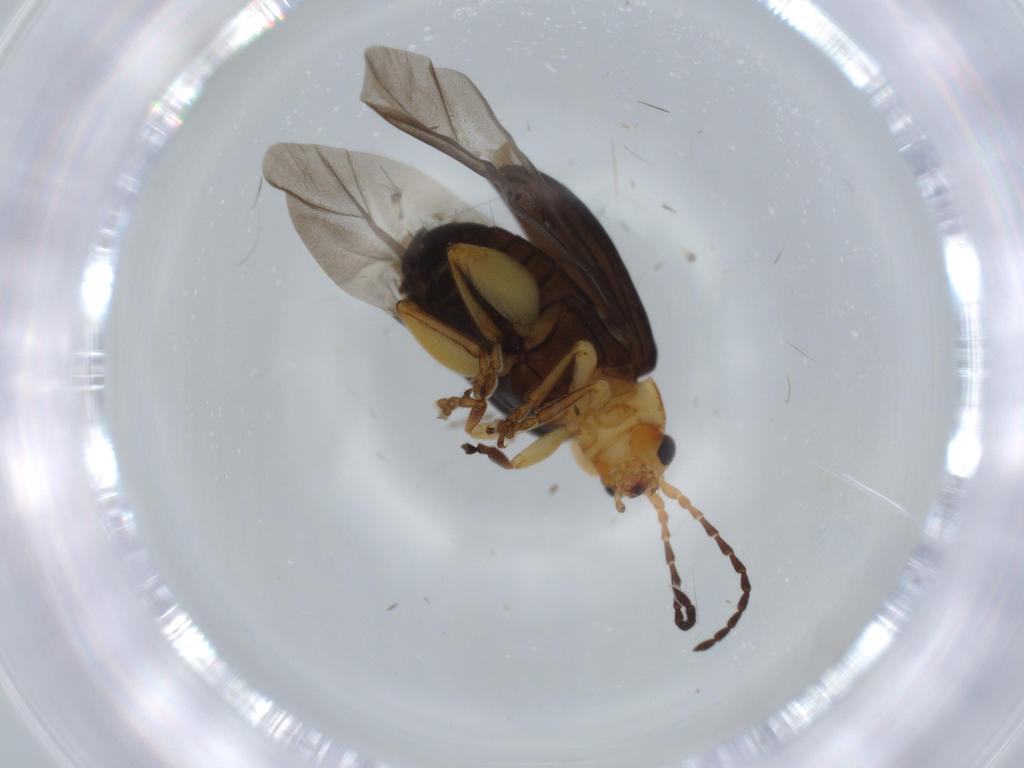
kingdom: Animalia
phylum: Arthropoda
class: Insecta
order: Coleoptera
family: Chrysomelidae
